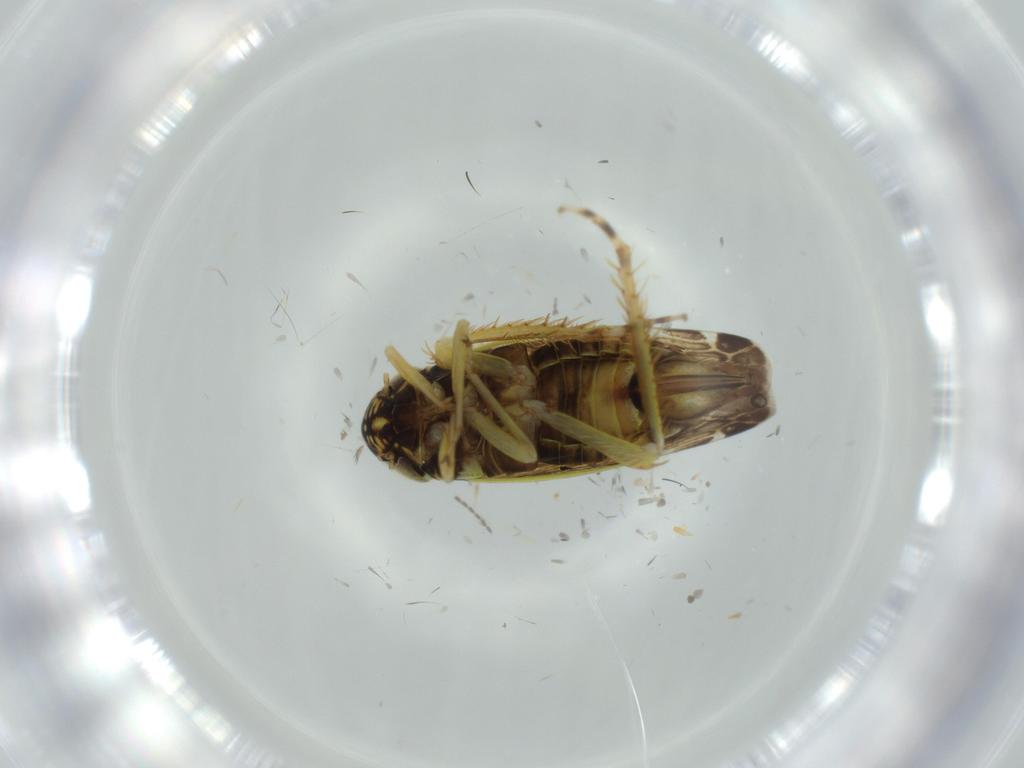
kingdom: Animalia
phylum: Arthropoda
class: Insecta
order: Hemiptera
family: Cicadellidae
